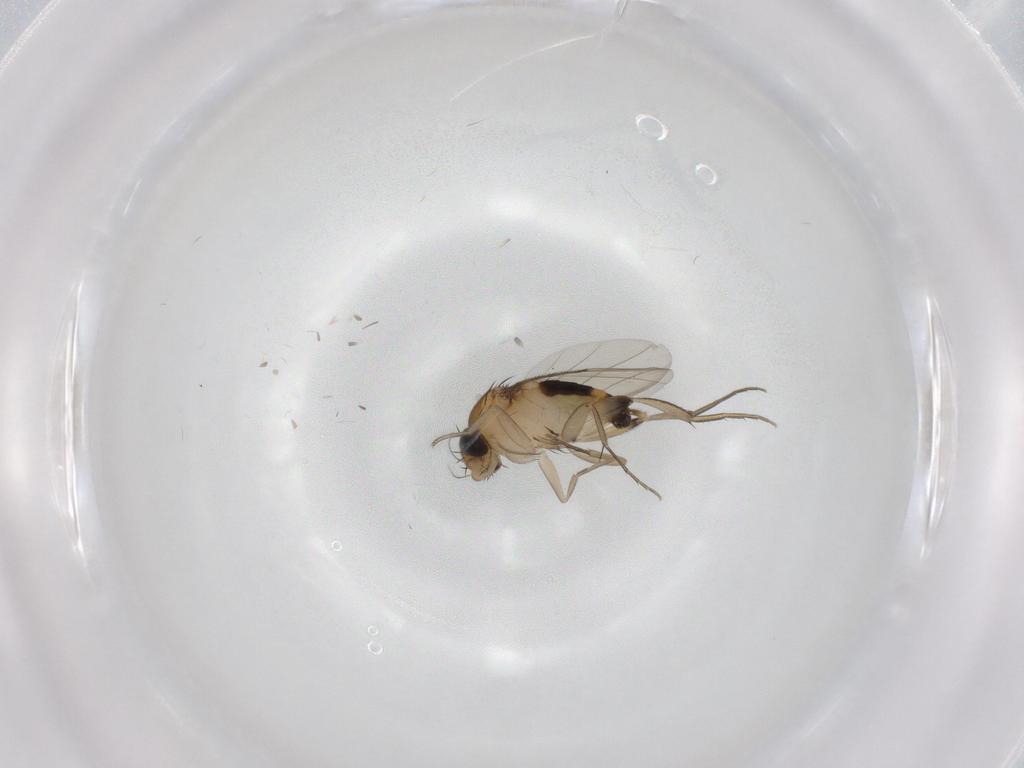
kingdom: Animalia
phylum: Arthropoda
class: Insecta
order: Diptera
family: Phoridae
